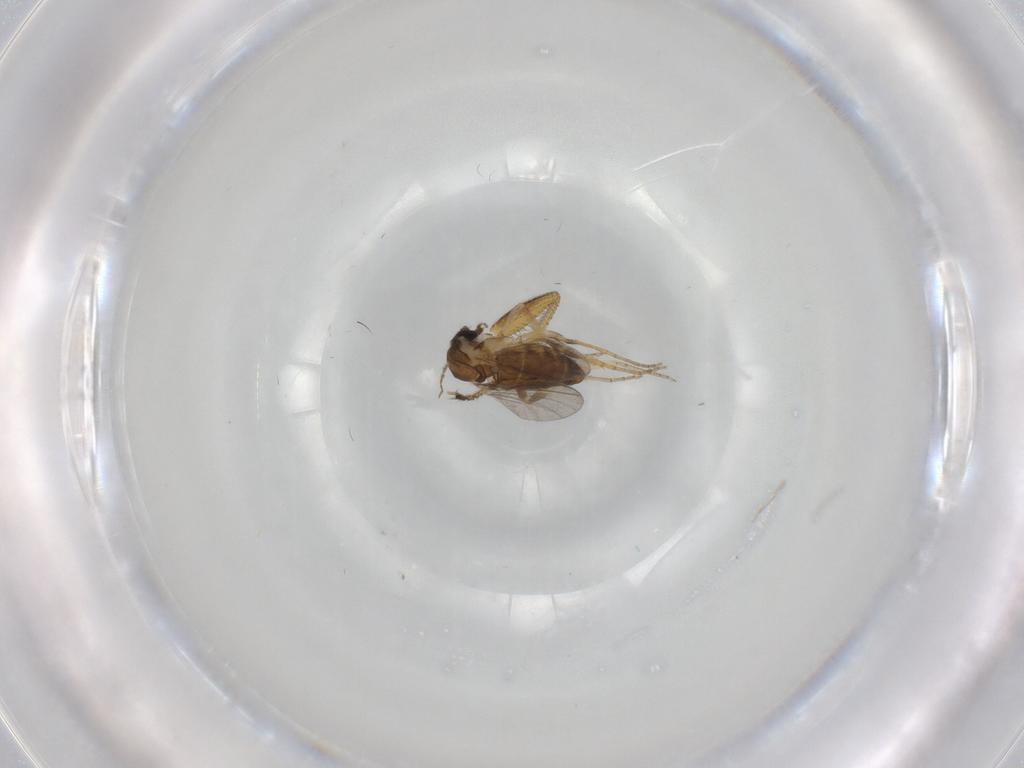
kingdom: Animalia
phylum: Arthropoda
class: Insecta
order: Diptera
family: Ceratopogonidae
